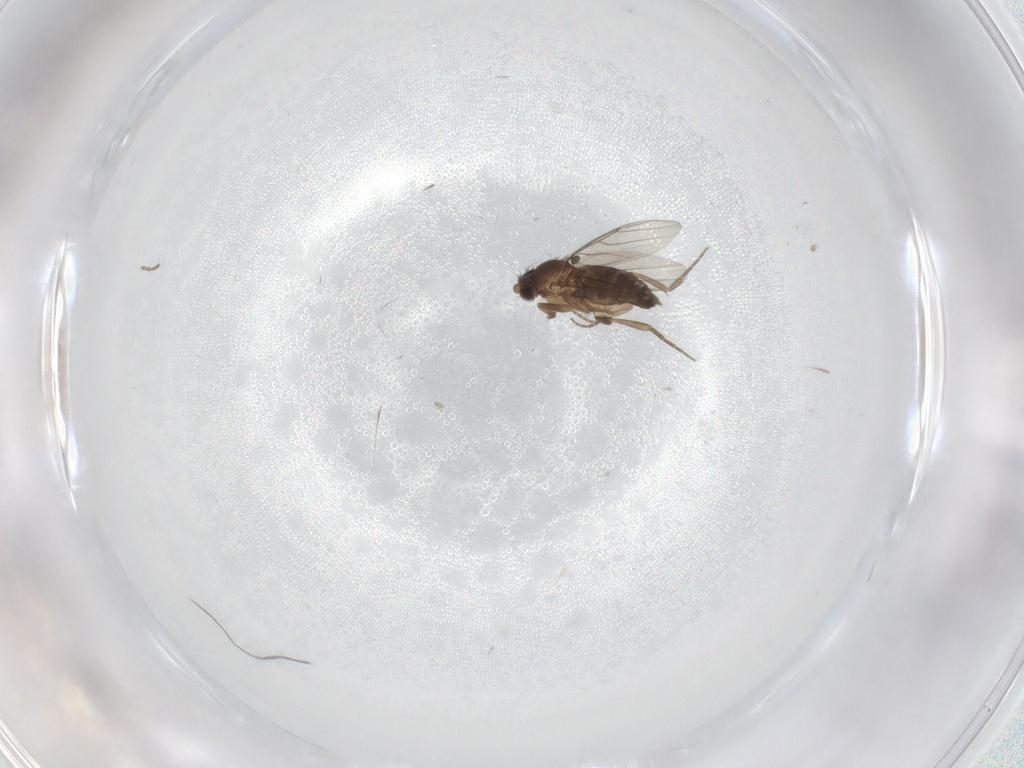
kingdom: Animalia
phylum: Arthropoda
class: Insecta
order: Diptera
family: Phoridae
